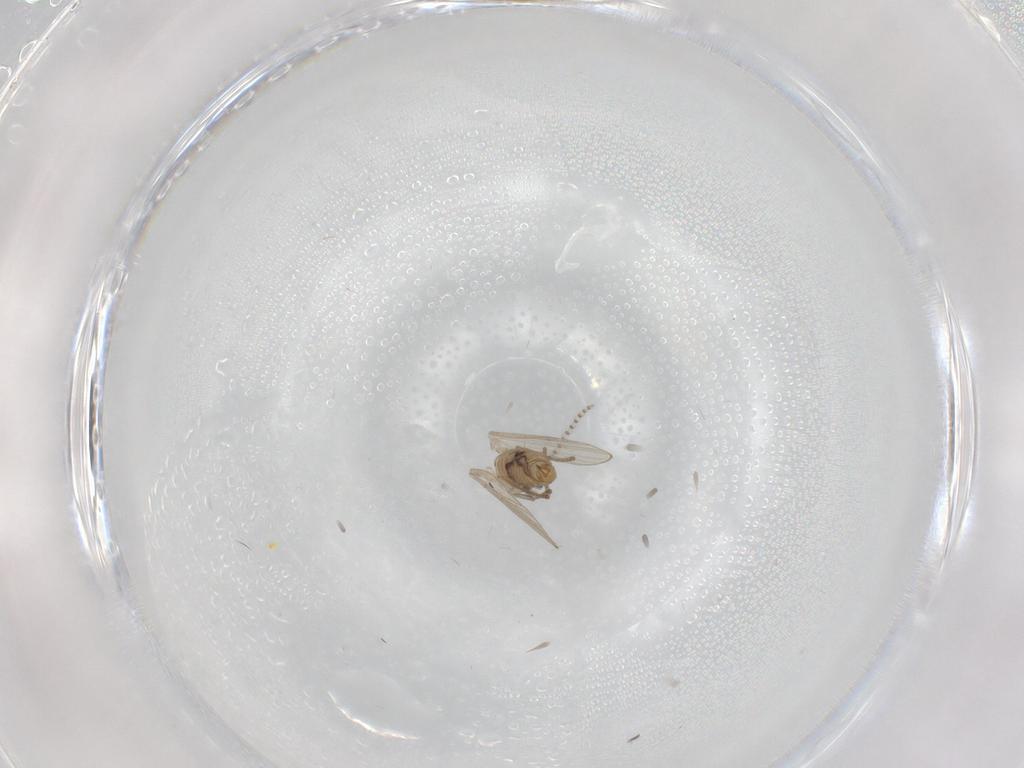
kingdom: Animalia
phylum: Arthropoda
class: Insecta
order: Diptera
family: Psychodidae
